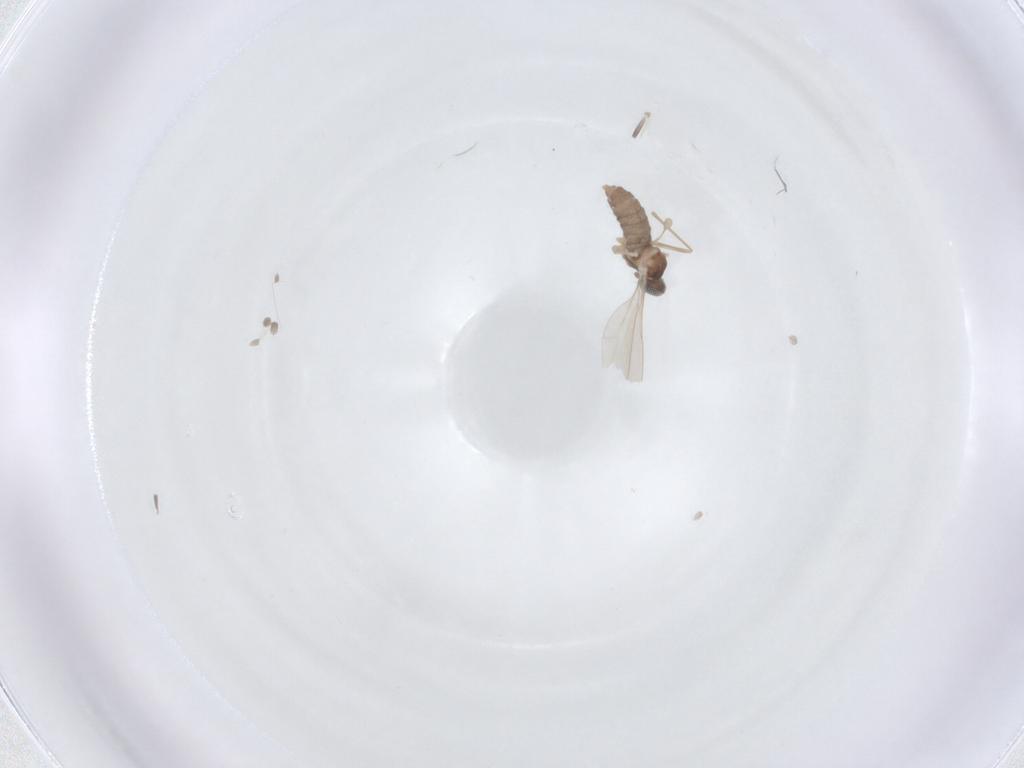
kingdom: Animalia
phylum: Arthropoda
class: Insecta
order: Diptera
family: Cecidomyiidae
